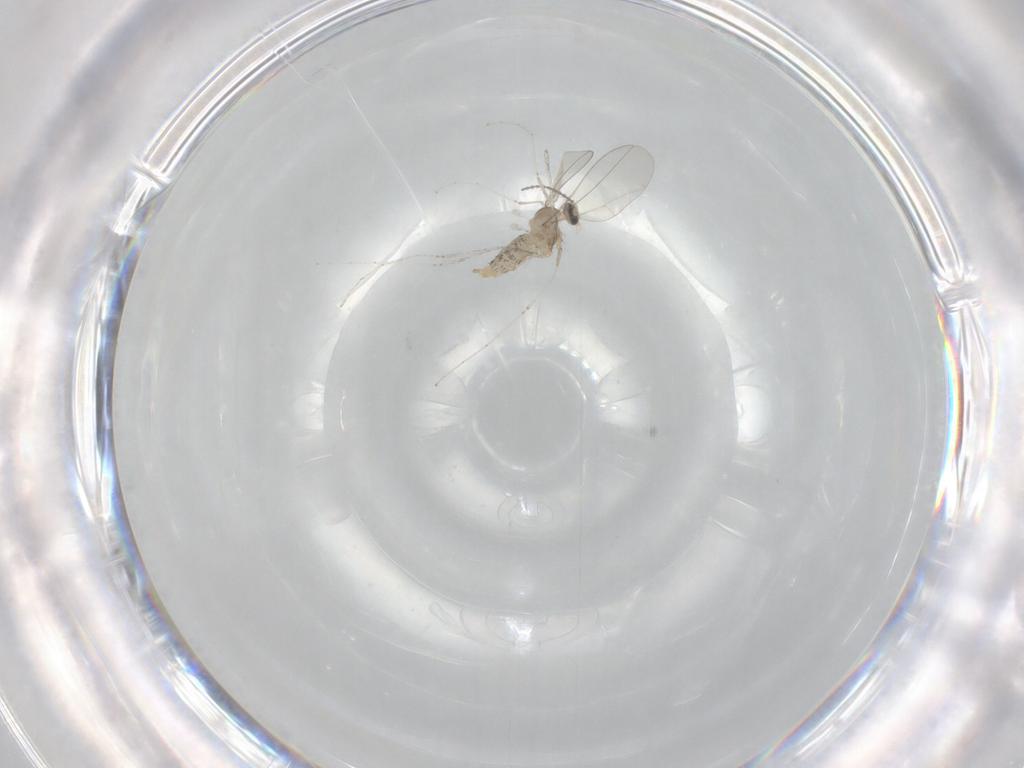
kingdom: Animalia
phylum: Arthropoda
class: Insecta
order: Diptera
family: Cecidomyiidae
